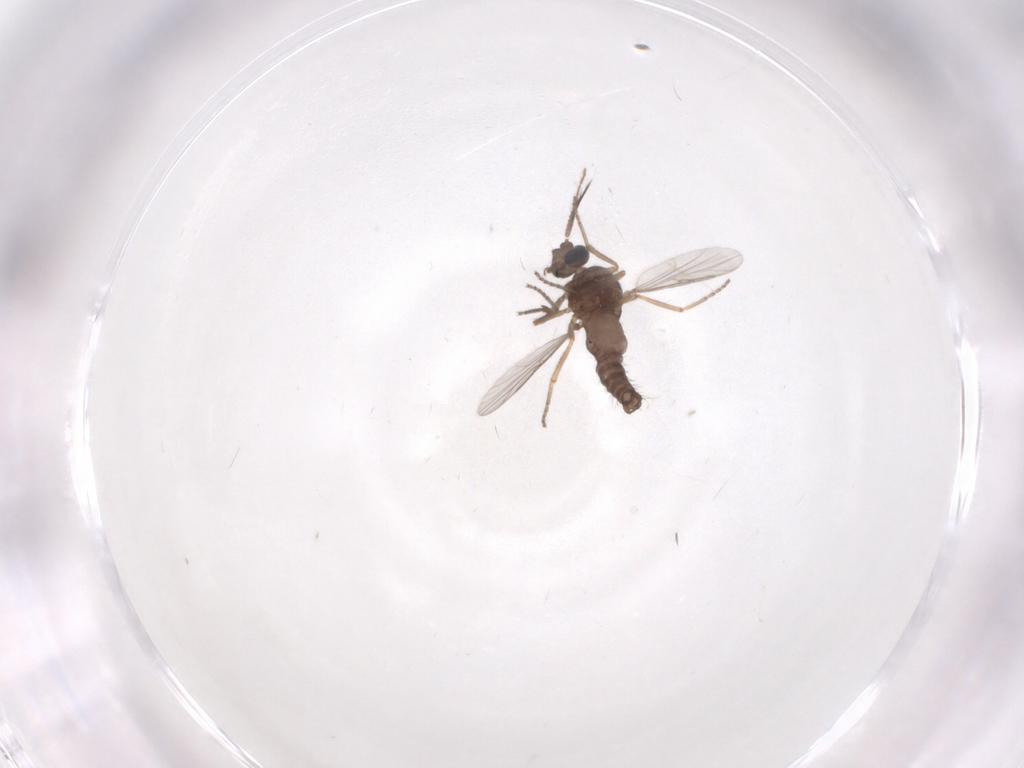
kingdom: Animalia
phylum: Arthropoda
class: Insecta
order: Diptera
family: Ceratopogonidae
